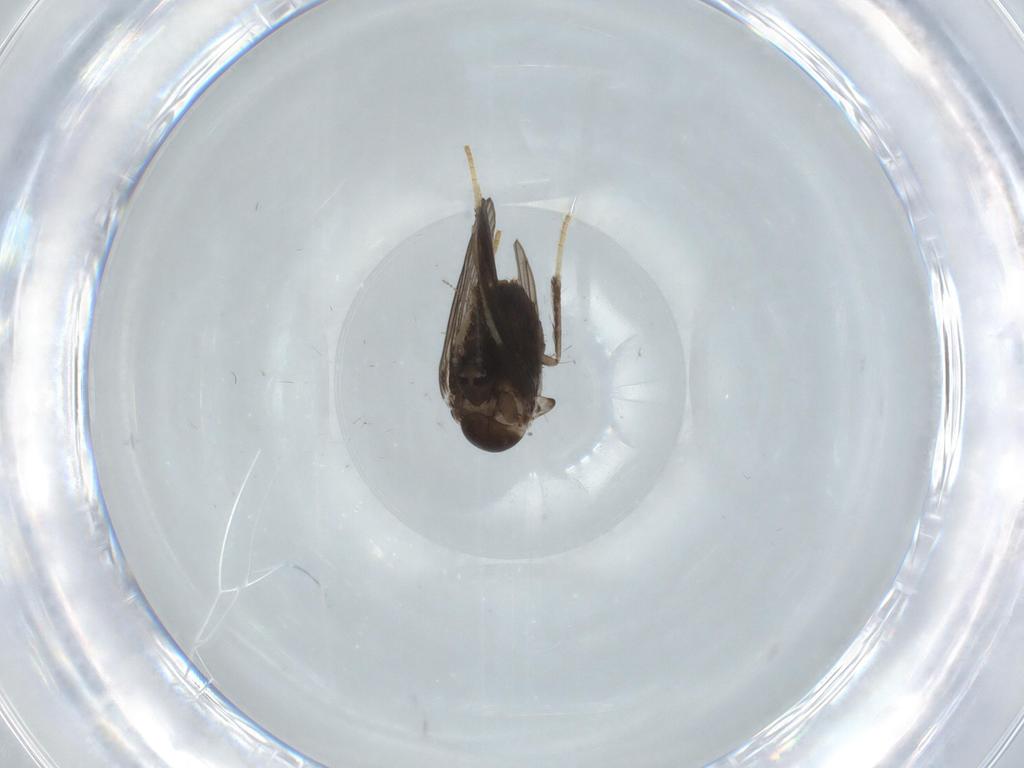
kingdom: Animalia
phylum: Arthropoda
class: Insecta
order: Diptera
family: Psychodidae
